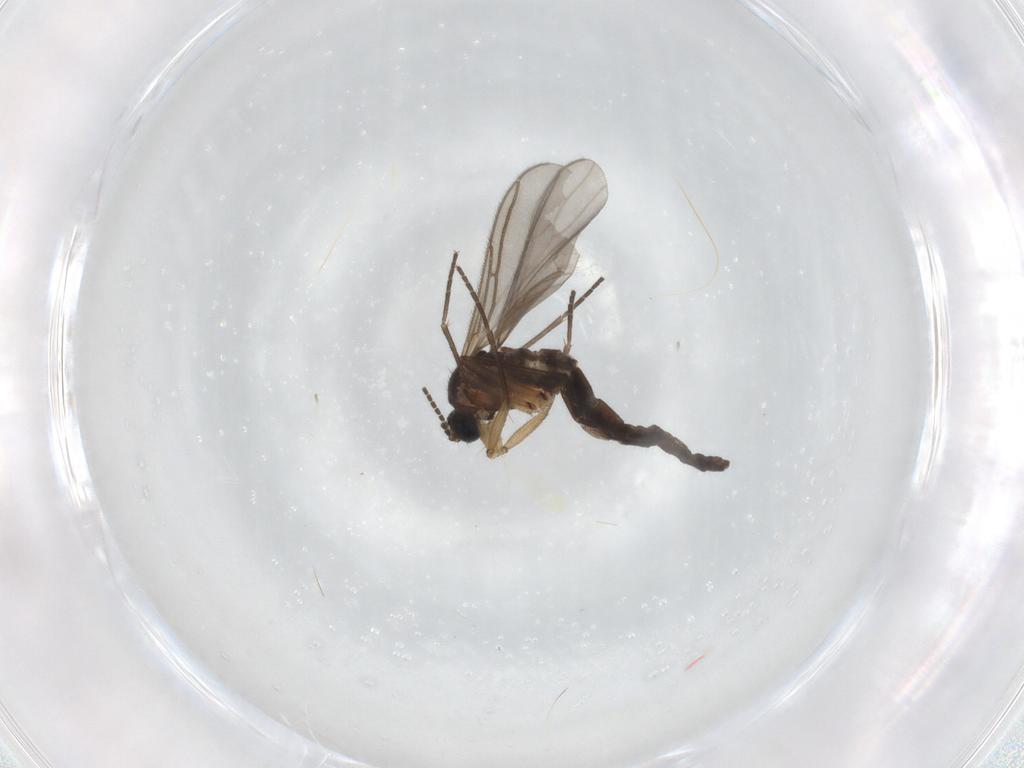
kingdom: Animalia
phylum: Arthropoda
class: Insecta
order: Diptera
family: Sciaridae
